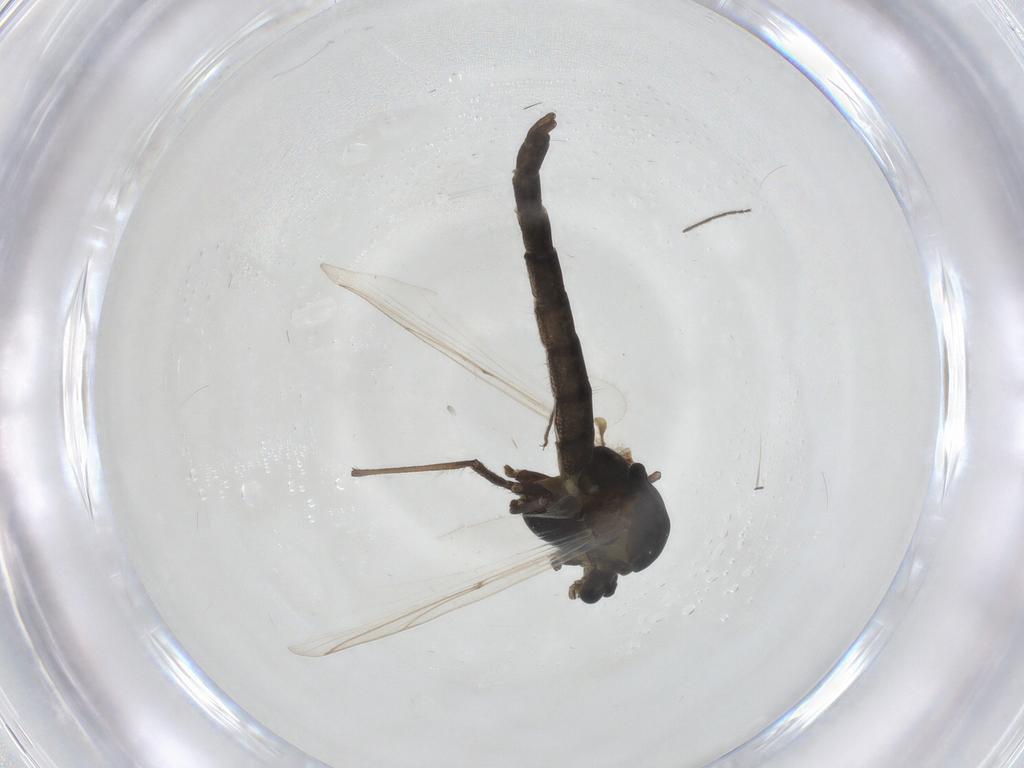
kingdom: Animalia
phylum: Arthropoda
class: Insecta
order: Diptera
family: Chironomidae
